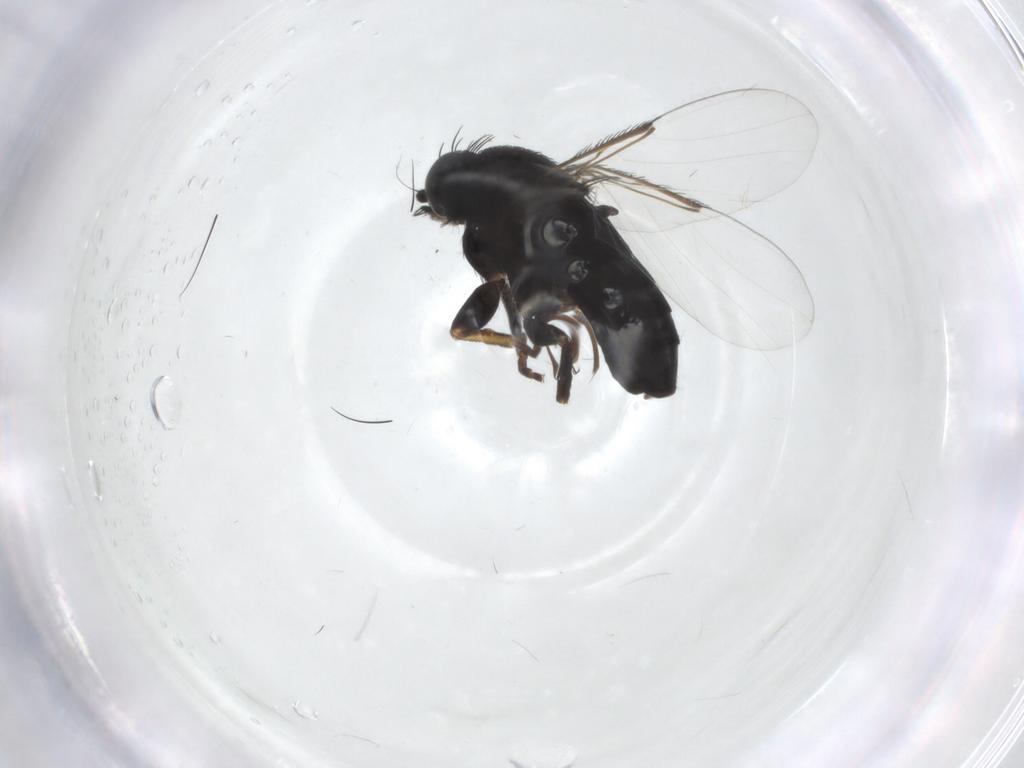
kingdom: Animalia
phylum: Arthropoda
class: Insecta
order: Diptera
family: Phoridae
